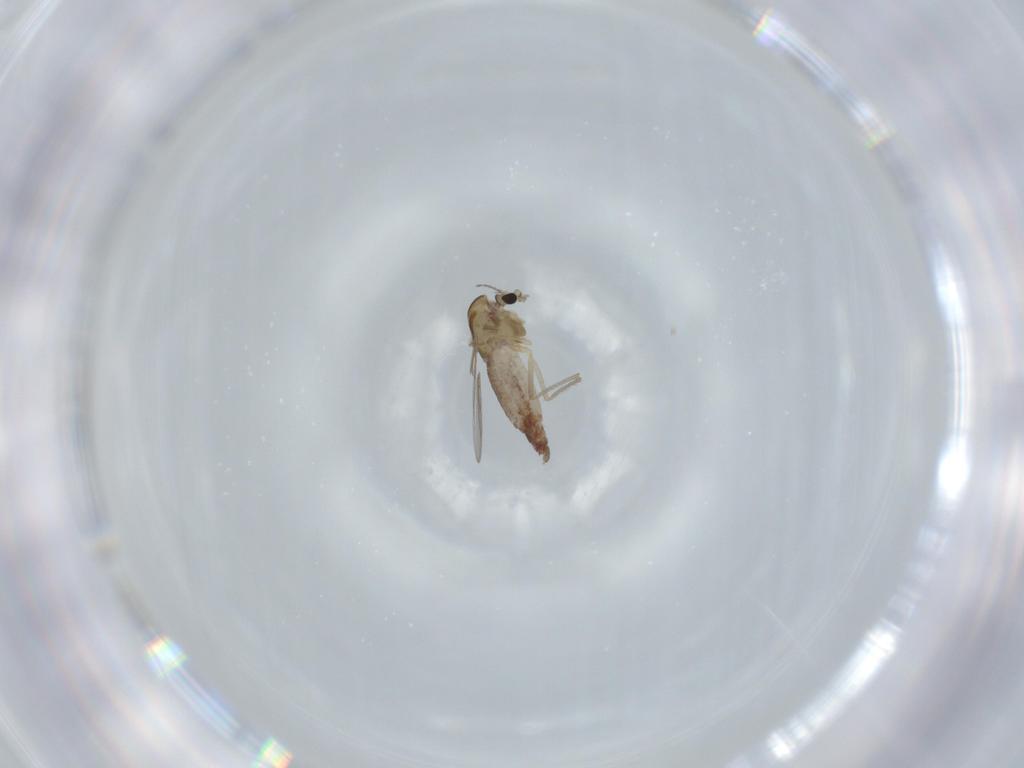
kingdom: Animalia
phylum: Arthropoda
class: Insecta
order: Diptera
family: Chironomidae
